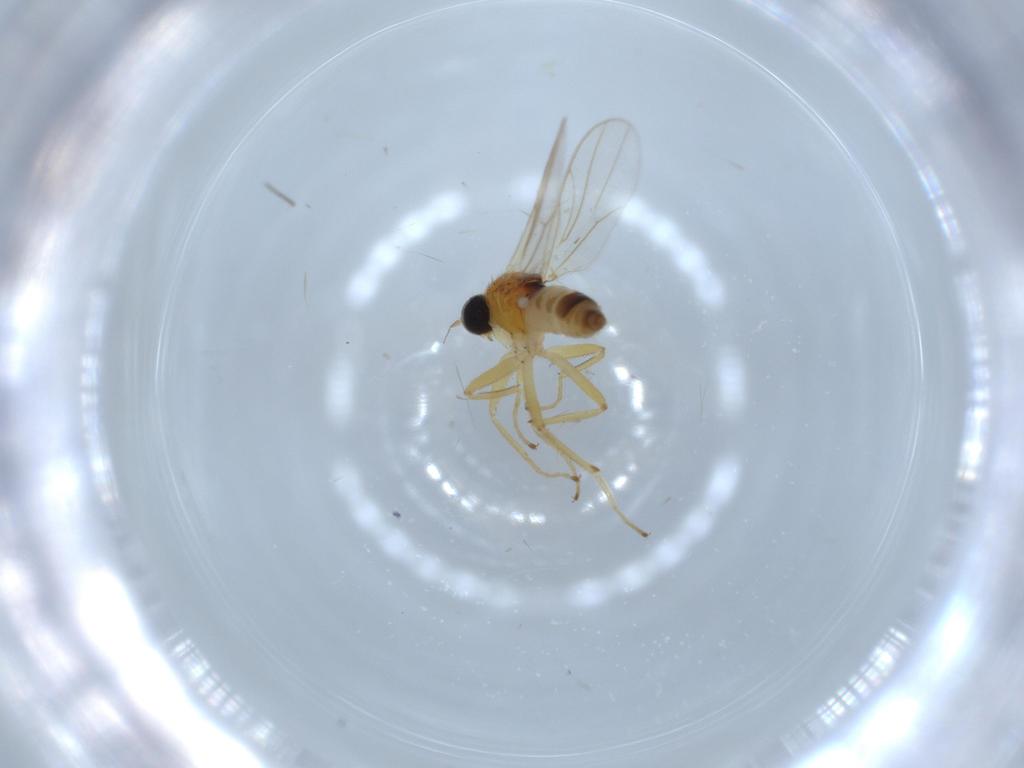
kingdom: Animalia
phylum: Arthropoda
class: Insecta
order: Diptera
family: Hybotidae
